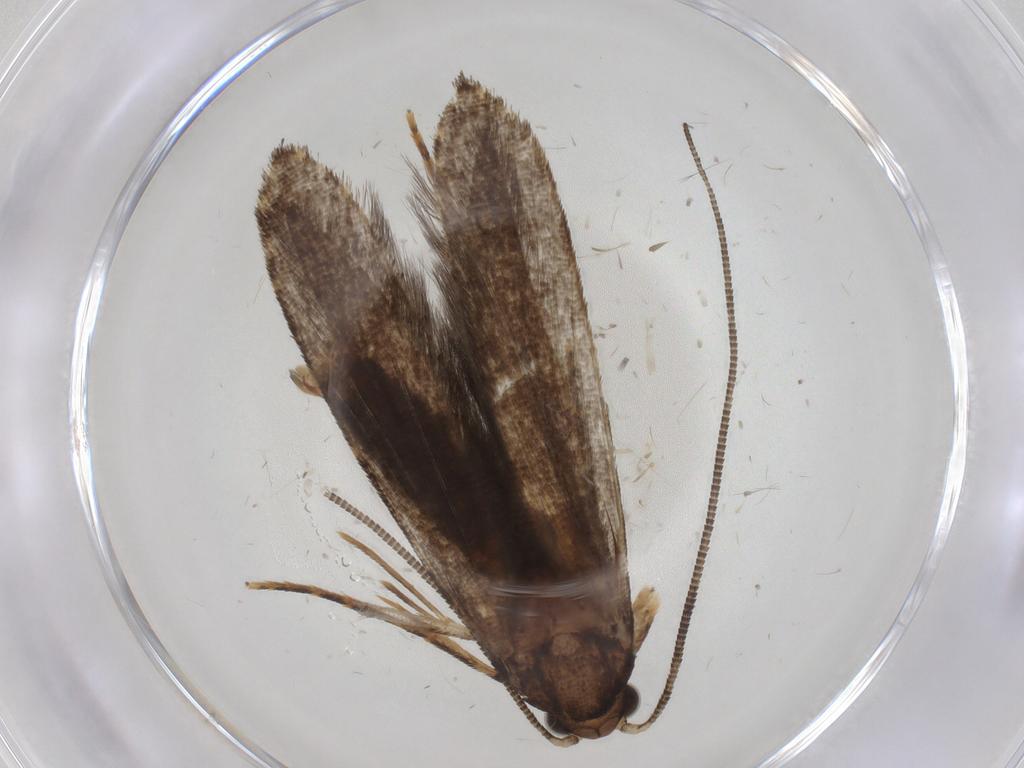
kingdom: Animalia
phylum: Arthropoda
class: Insecta
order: Lepidoptera
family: Tineidae
